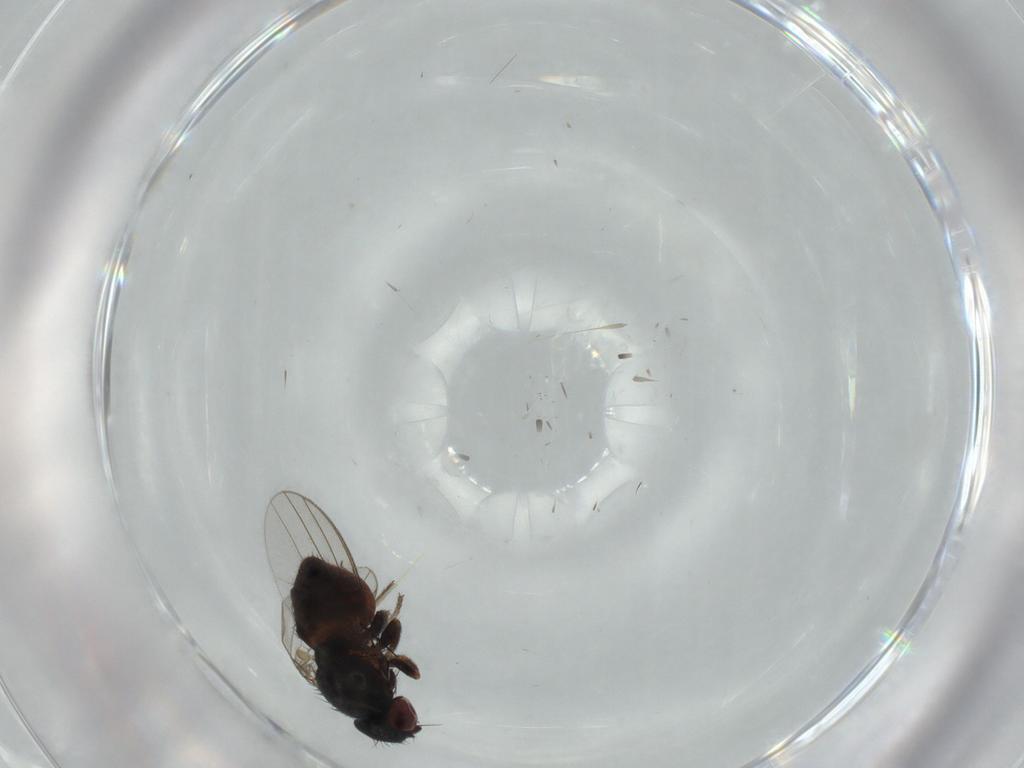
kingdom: Animalia
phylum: Arthropoda
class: Insecta
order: Diptera
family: Milichiidae
